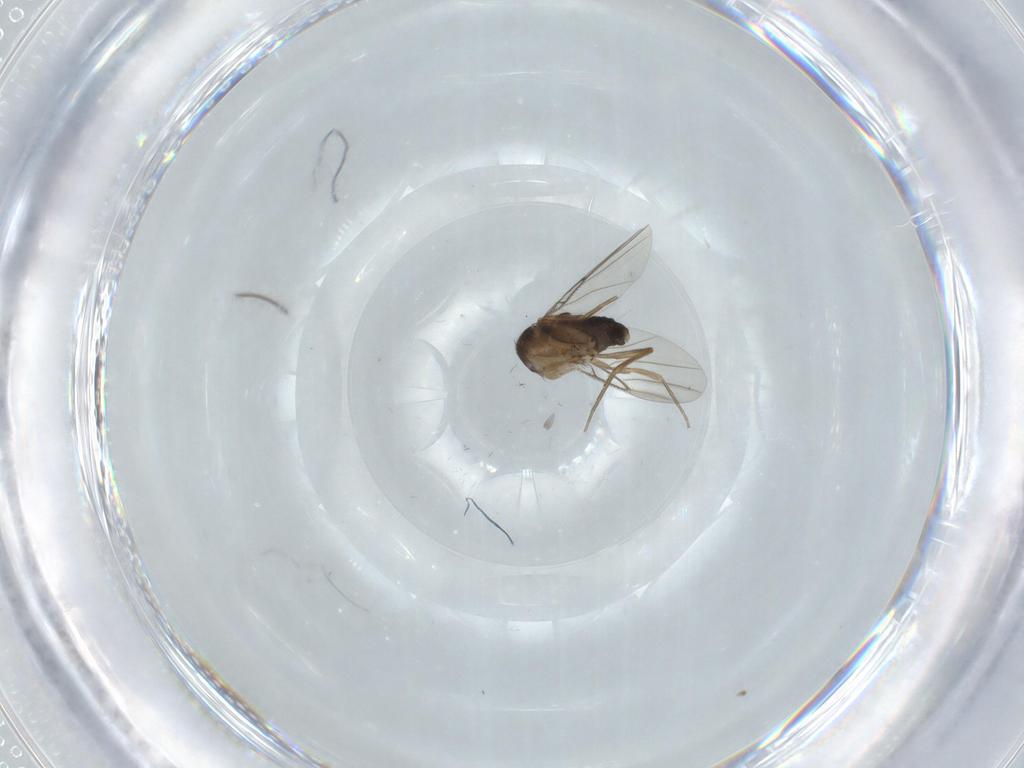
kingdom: Animalia
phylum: Arthropoda
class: Insecta
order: Diptera
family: Phoridae
